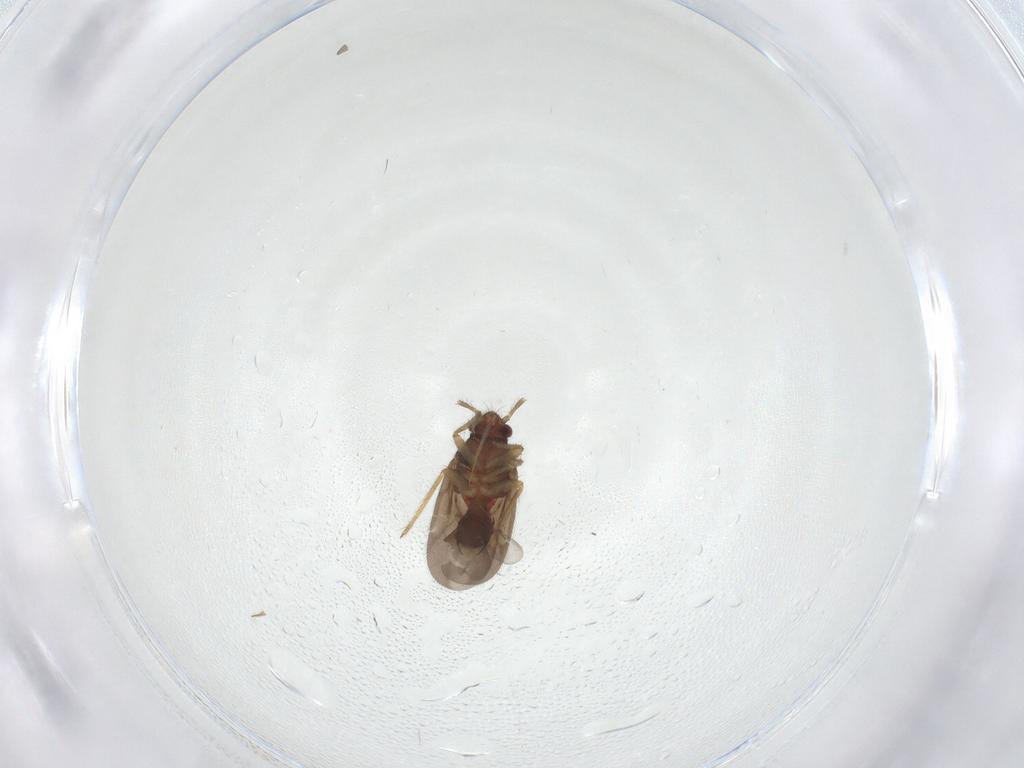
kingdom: Animalia
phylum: Arthropoda
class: Insecta
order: Hemiptera
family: Ceratocombidae
